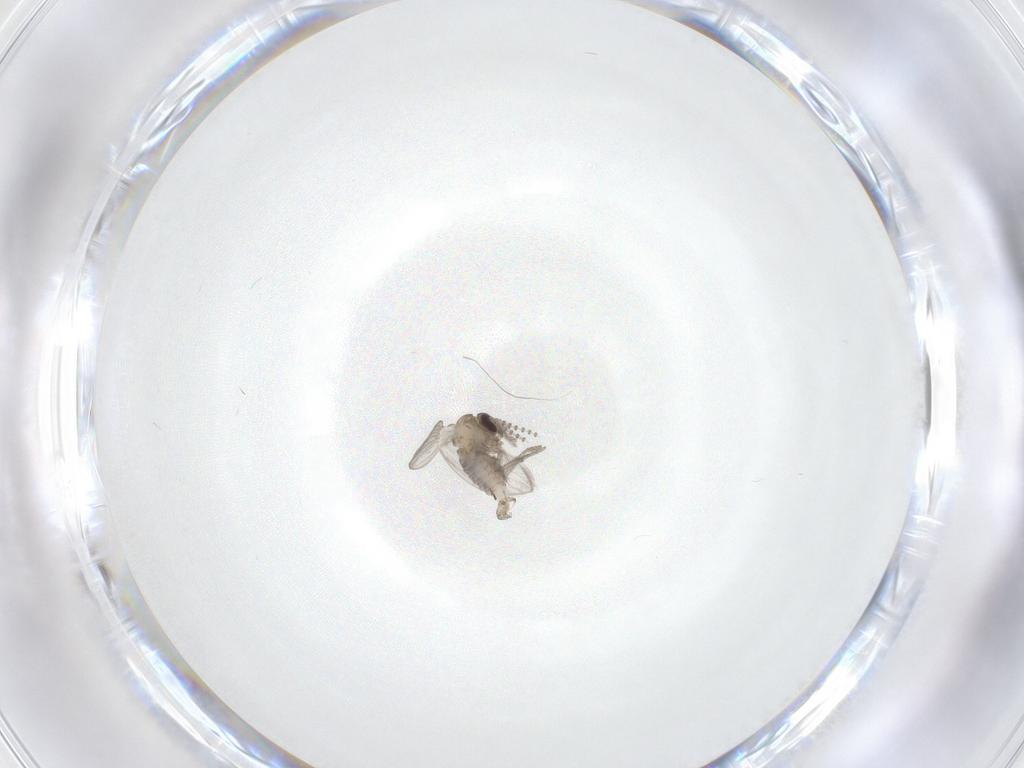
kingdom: Animalia
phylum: Arthropoda
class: Insecta
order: Diptera
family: Psychodidae
